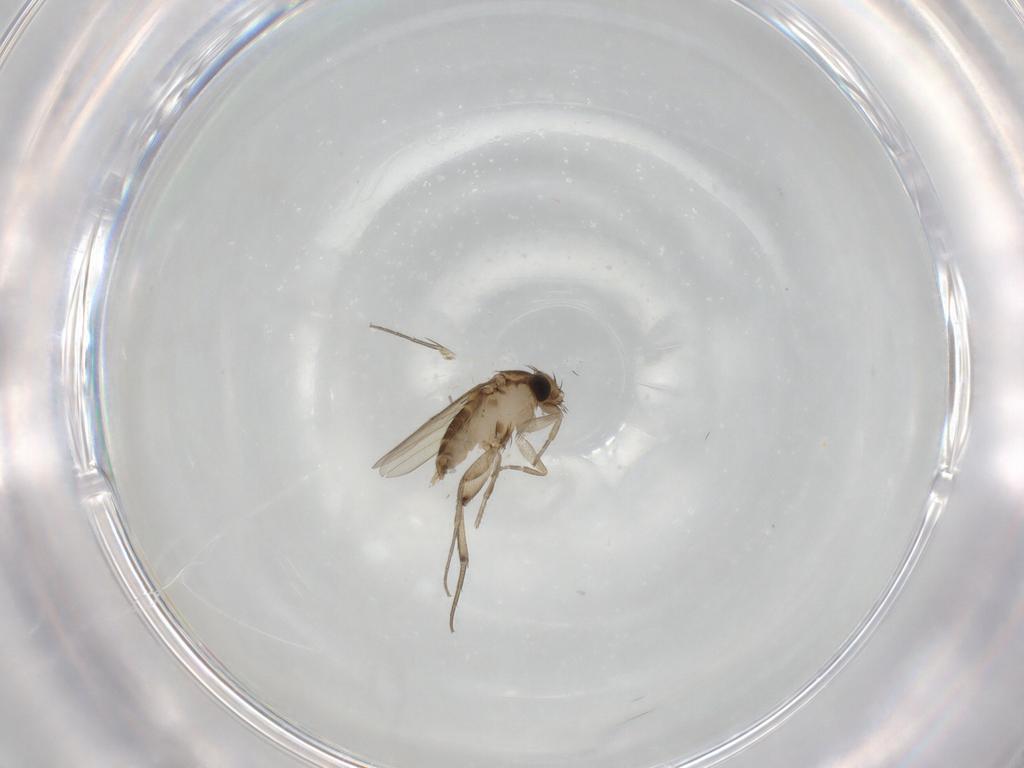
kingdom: Animalia
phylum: Arthropoda
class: Insecta
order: Diptera
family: Phoridae
